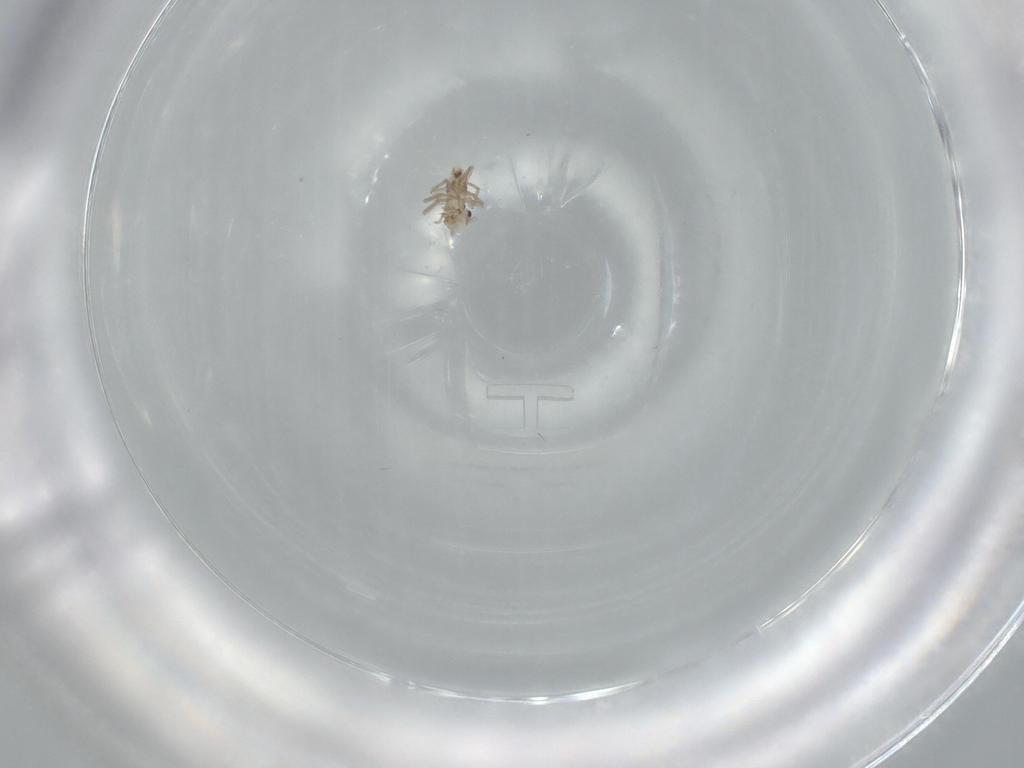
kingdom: Animalia
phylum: Arthropoda
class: Insecta
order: Psocodea
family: Epipsocidae
